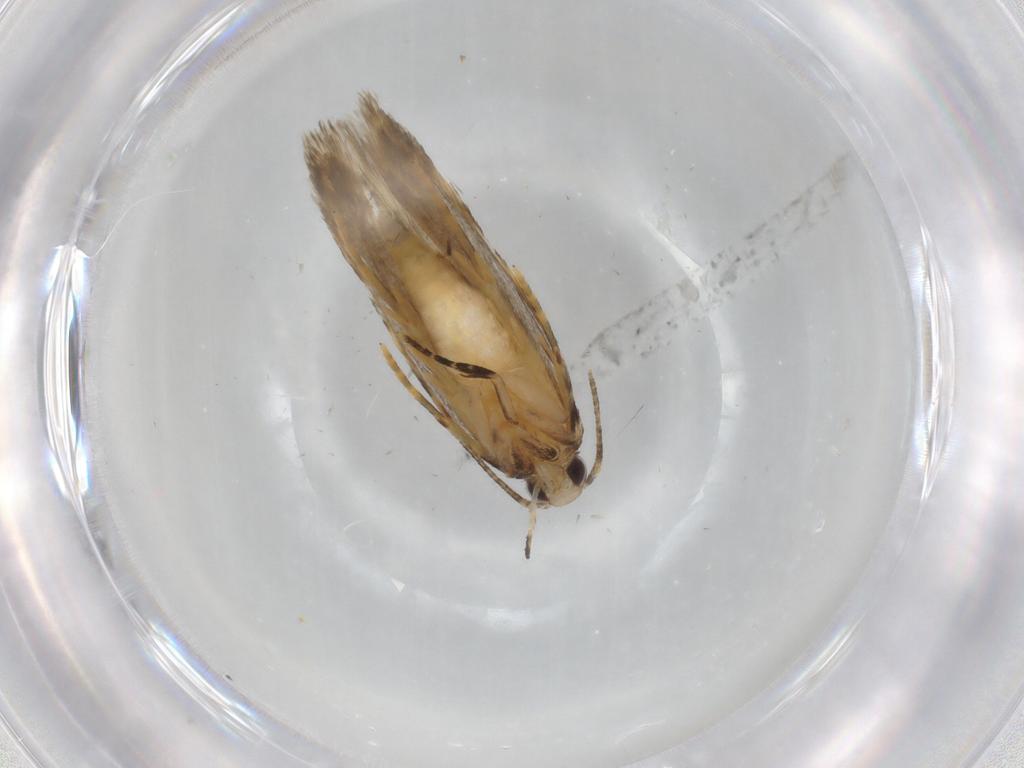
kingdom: Animalia
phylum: Arthropoda
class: Insecta
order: Lepidoptera
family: Autostichidae
